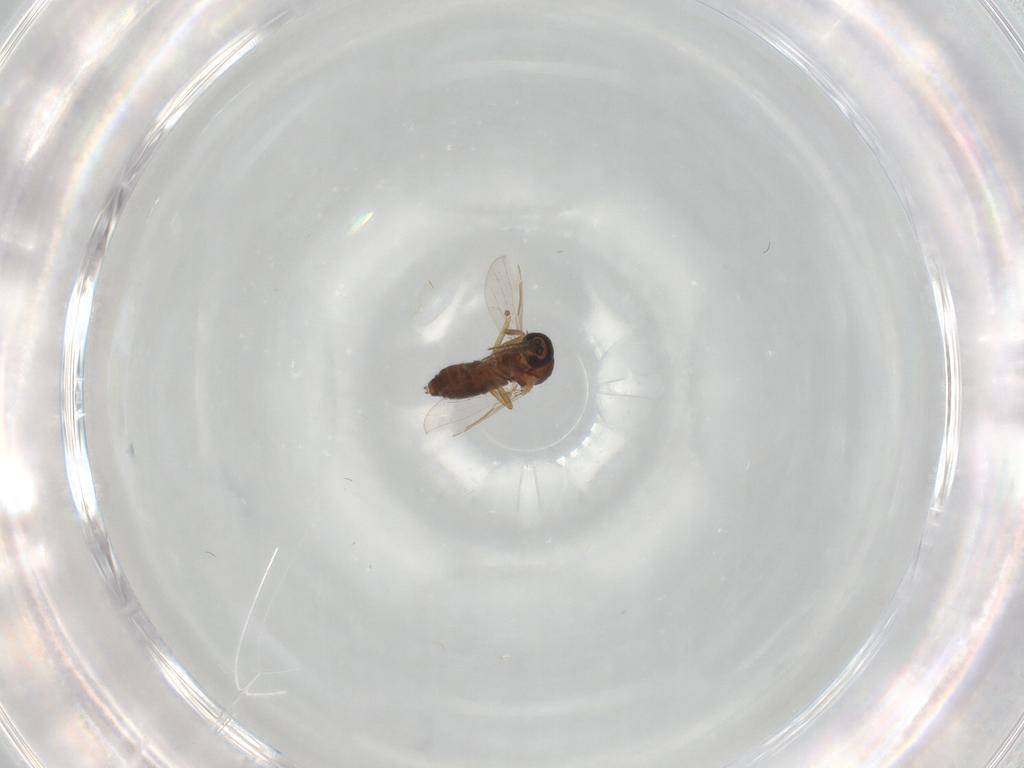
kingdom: Animalia
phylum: Arthropoda
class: Insecta
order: Diptera
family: Cecidomyiidae
